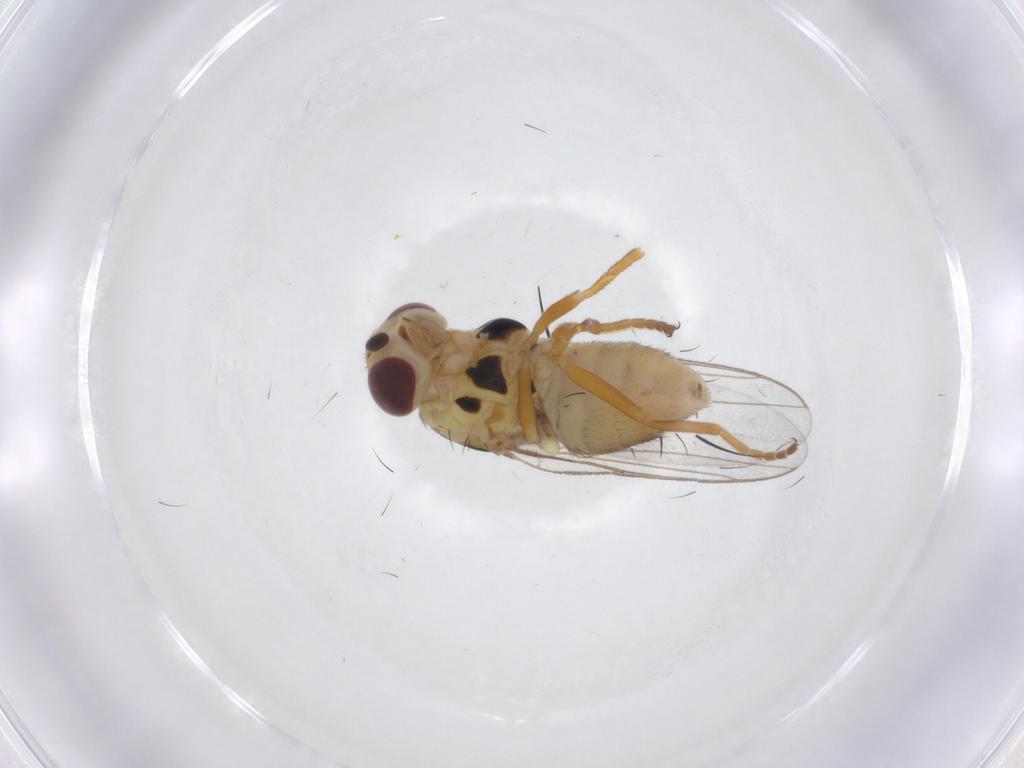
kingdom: Animalia
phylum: Arthropoda
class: Insecta
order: Diptera
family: Chloropidae
